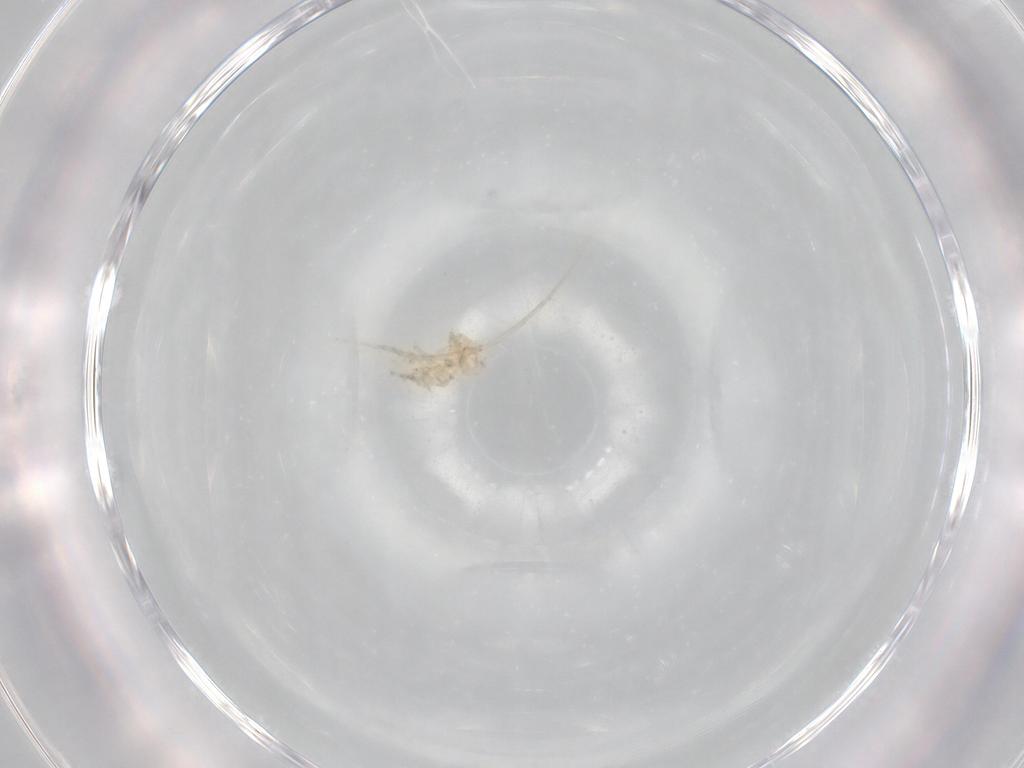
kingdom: Animalia
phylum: Arthropoda
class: Insecta
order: Diptera
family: Chironomidae
